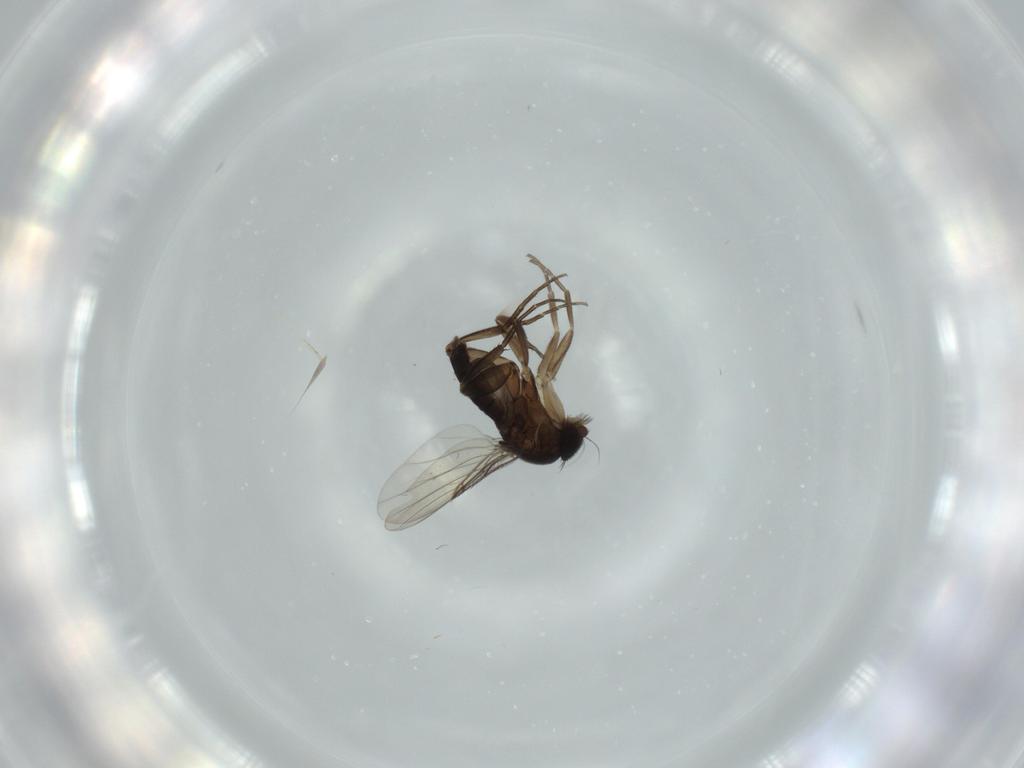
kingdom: Animalia
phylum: Arthropoda
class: Insecta
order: Diptera
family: Phoridae
